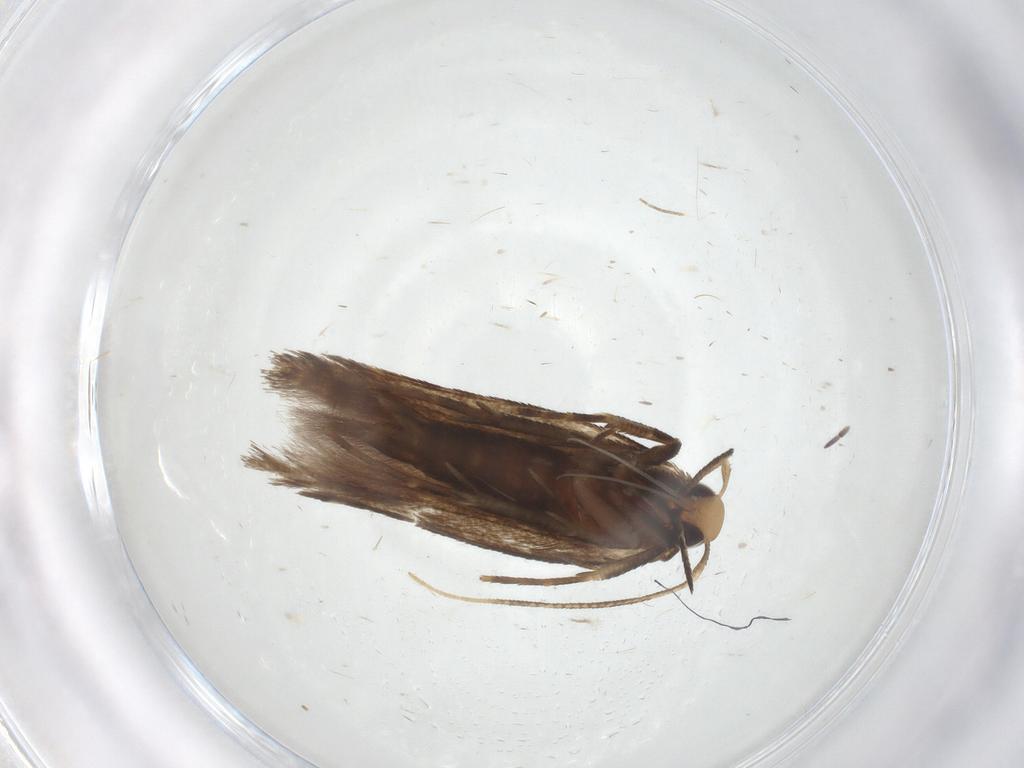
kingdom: Animalia
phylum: Arthropoda
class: Insecta
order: Lepidoptera
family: Cosmopterigidae
